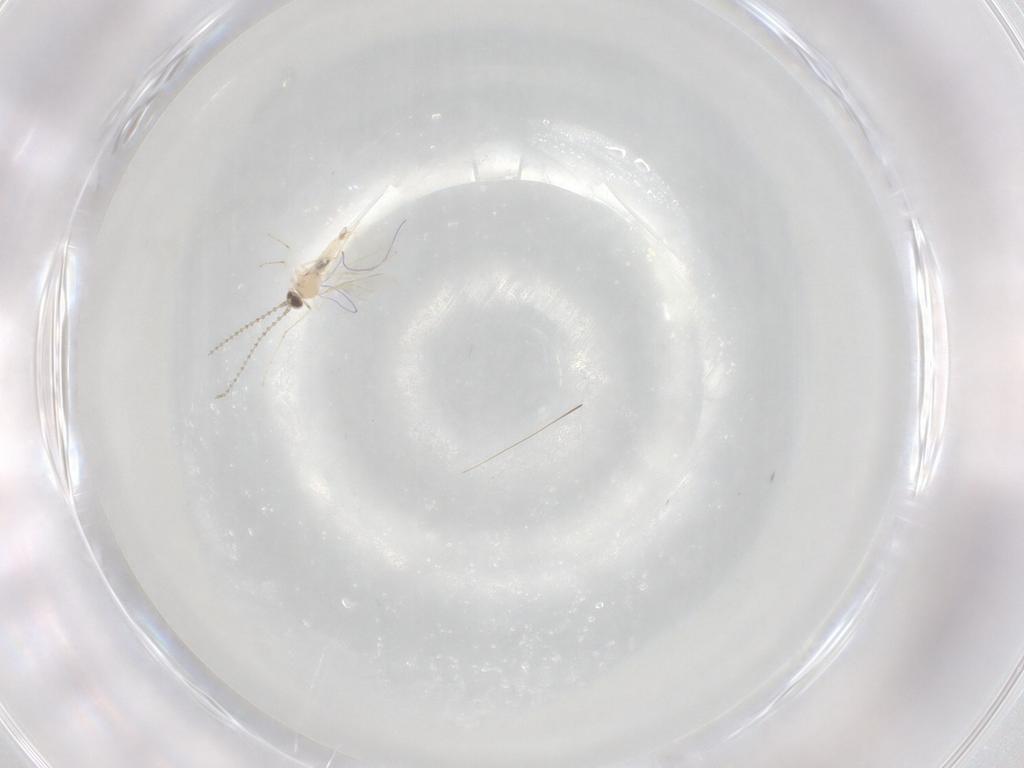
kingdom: Animalia
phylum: Arthropoda
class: Insecta
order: Diptera
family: Cecidomyiidae
